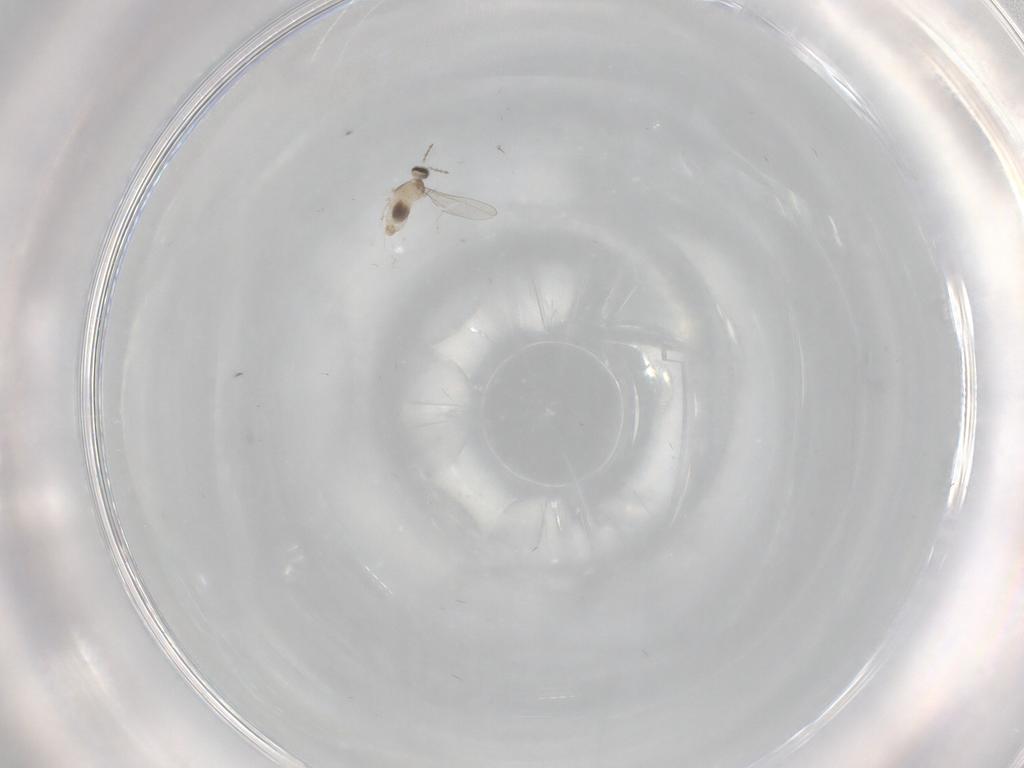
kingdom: Animalia
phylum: Arthropoda
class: Insecta
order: Diptera
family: Cecidomyiidae
